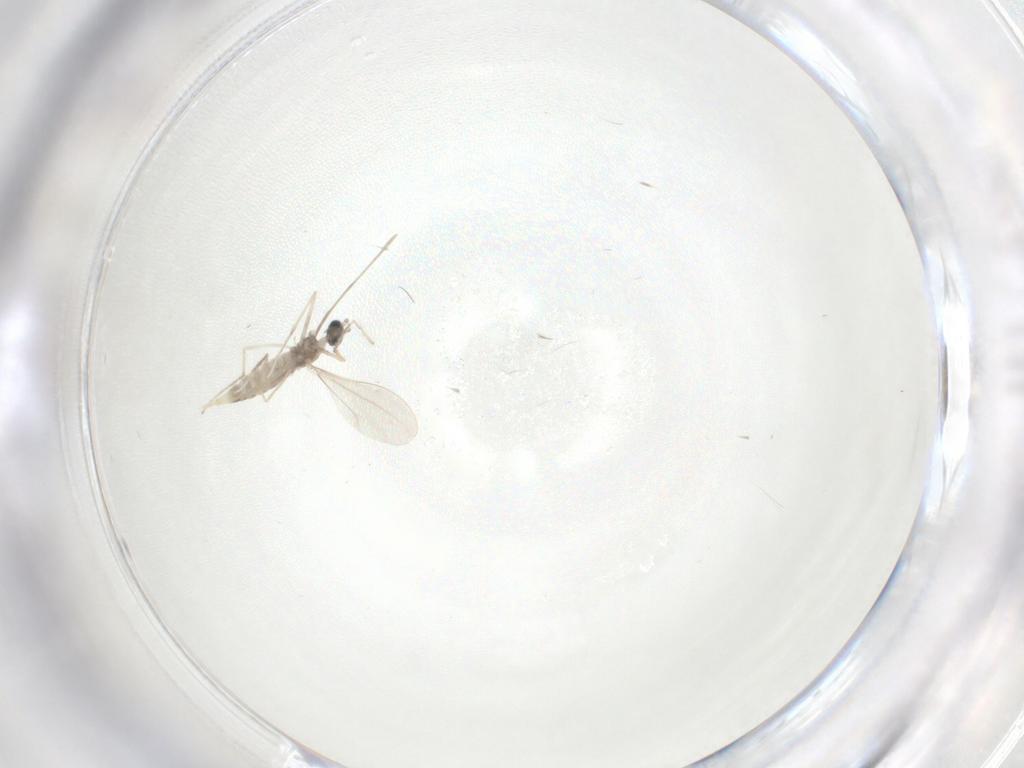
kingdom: Animalia
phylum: Arthropoda
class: Insecta
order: Diptera
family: Cecidomyiidae
